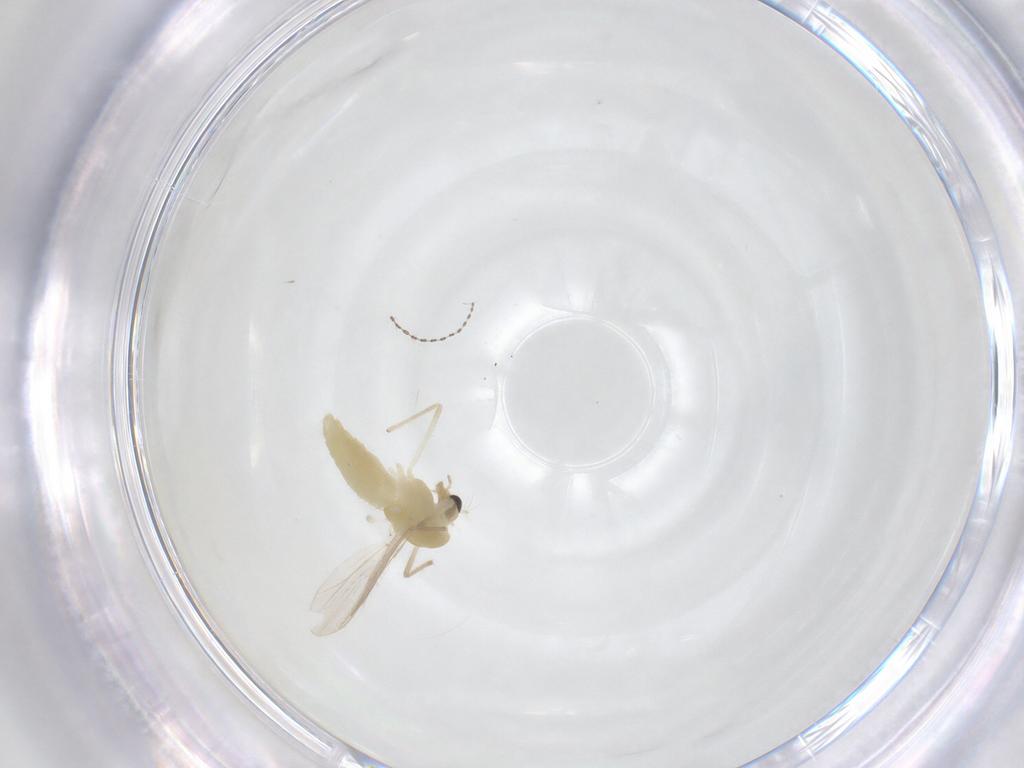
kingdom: Animalia
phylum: Arthropoda
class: Insecta
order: Diptera
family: Chironomidae
